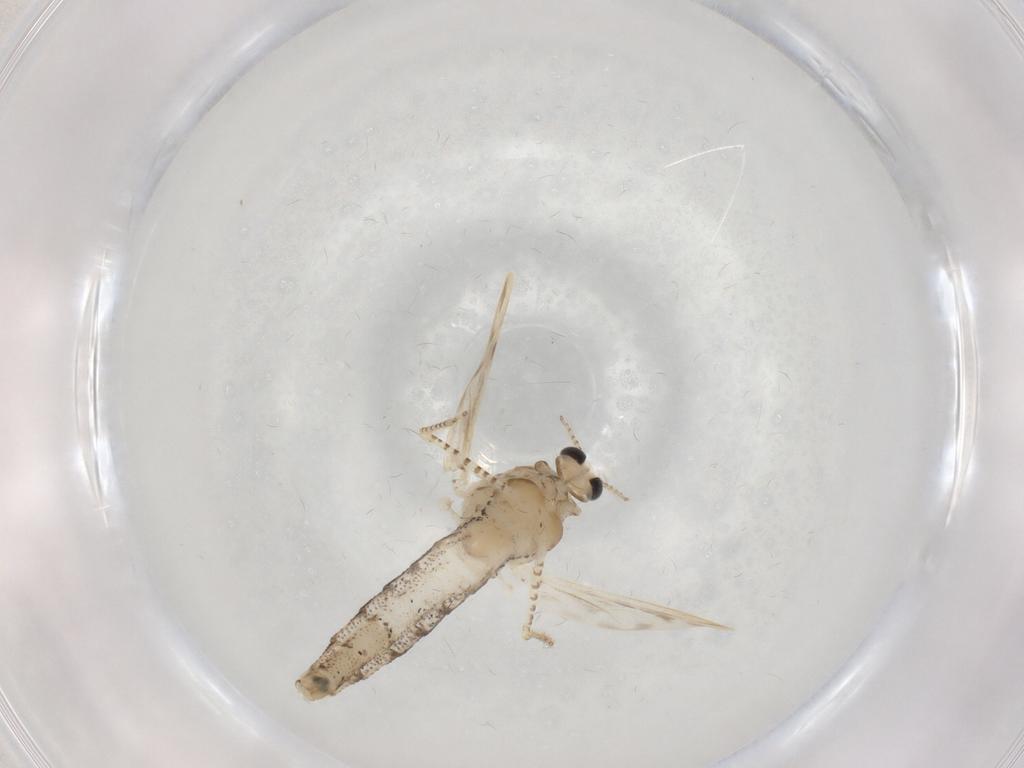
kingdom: Animalia
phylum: Arthropoda
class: Insecta
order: Diptera
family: Chaoboridae
